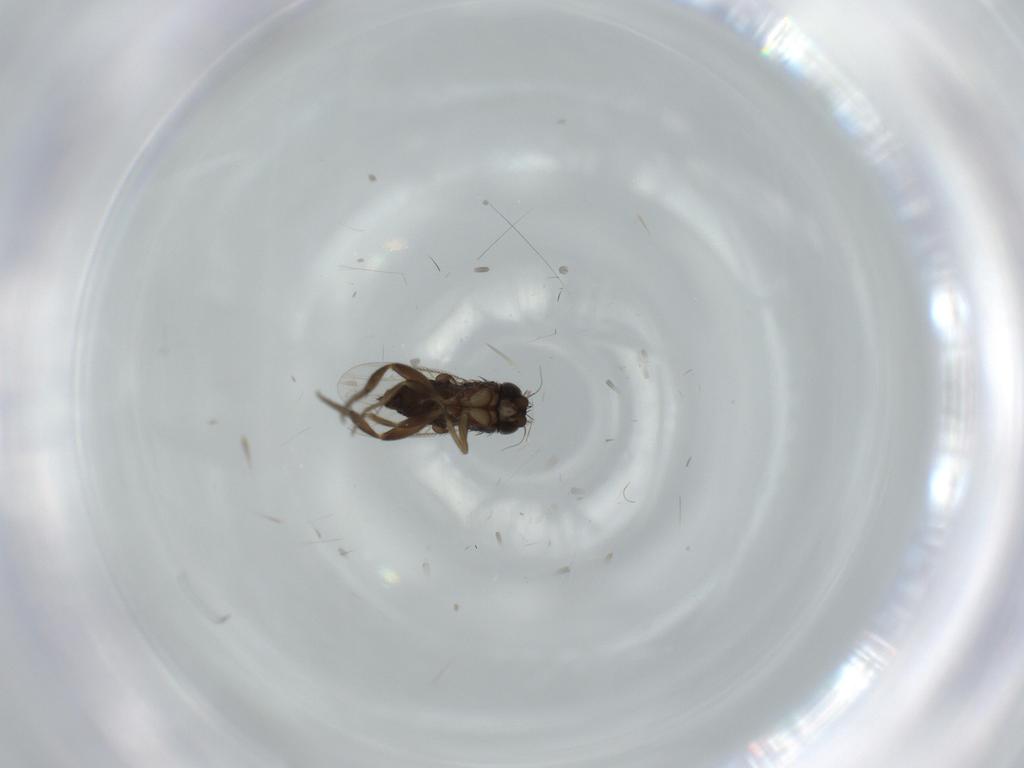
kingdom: Animalia
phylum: Arthropoda
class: Insecta
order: Diptera
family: Phoridae
